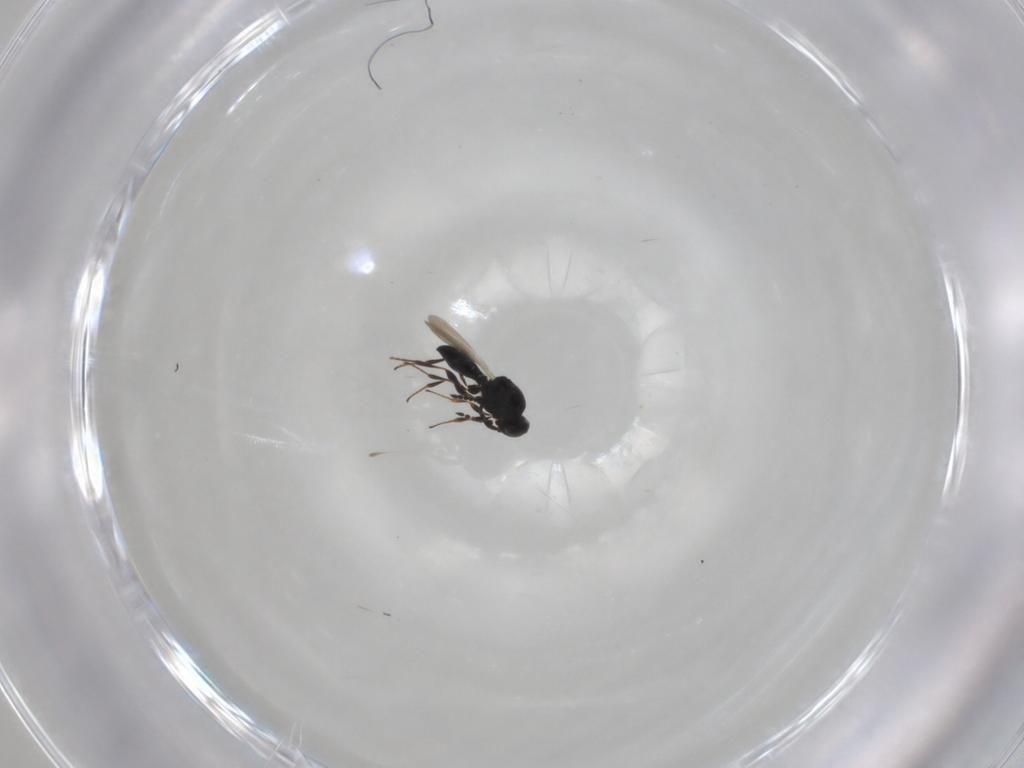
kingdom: Animalia
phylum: Arthropoda
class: Insecta
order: Hymenoptera
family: Platygastridae
